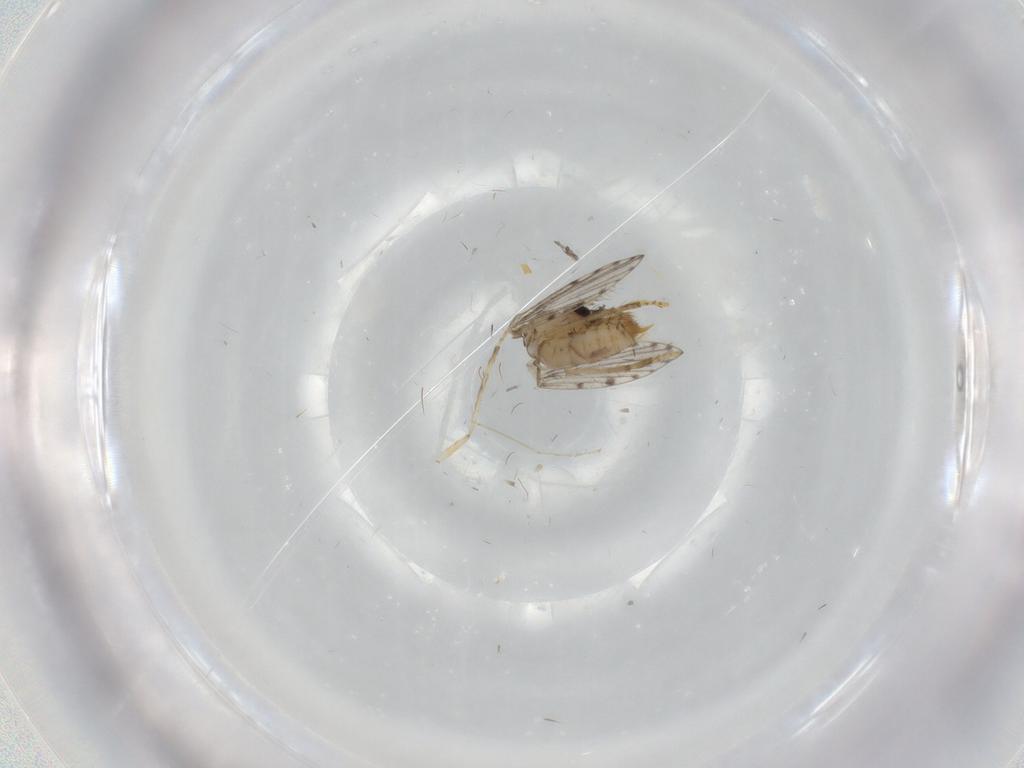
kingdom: Animalia
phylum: Arthropoda
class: Insecta
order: Diptera
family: Psychodidae
